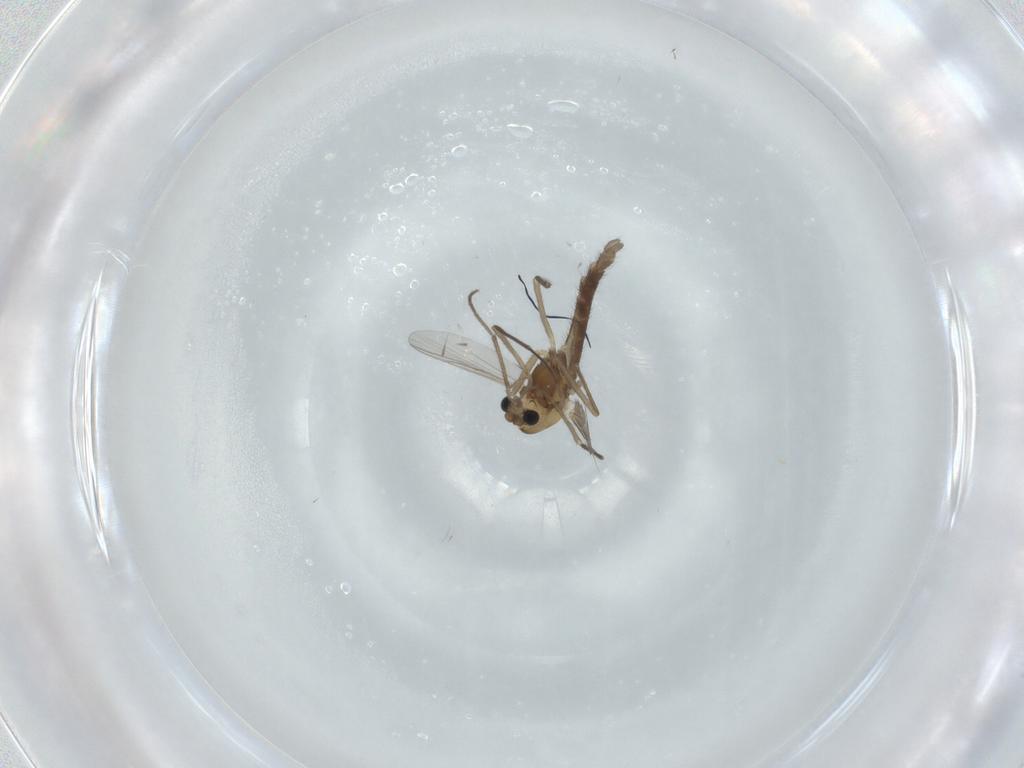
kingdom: Animalia
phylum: Arthropoda
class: Insecta
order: Diptera
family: Chironomidae
